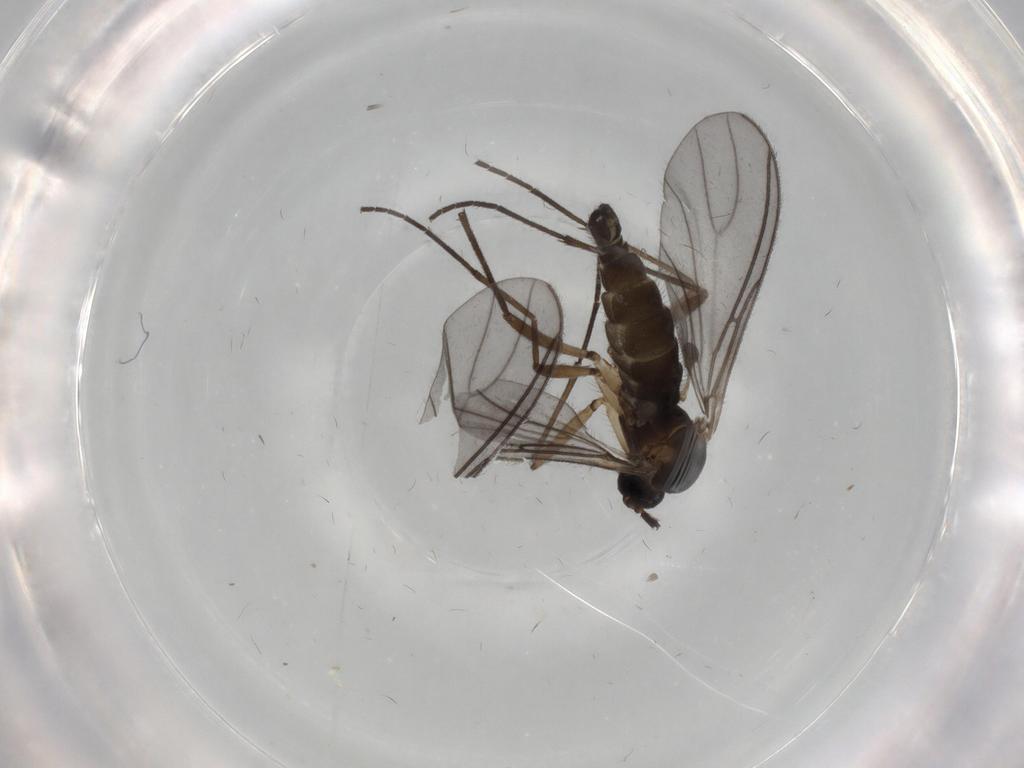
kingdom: Animalia
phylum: Arthropoda
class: Insecta
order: Diptera
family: Sciaridae
